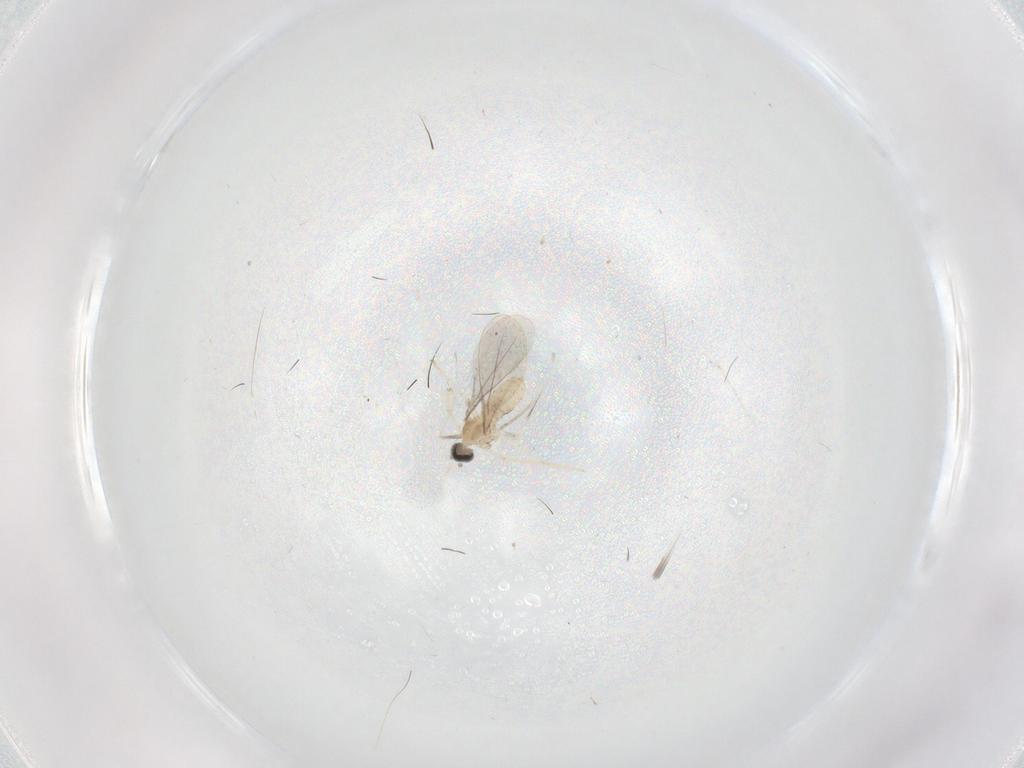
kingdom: Animalia
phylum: Arthropoda
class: Insecta
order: Diptera
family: Cecidomyiidae
